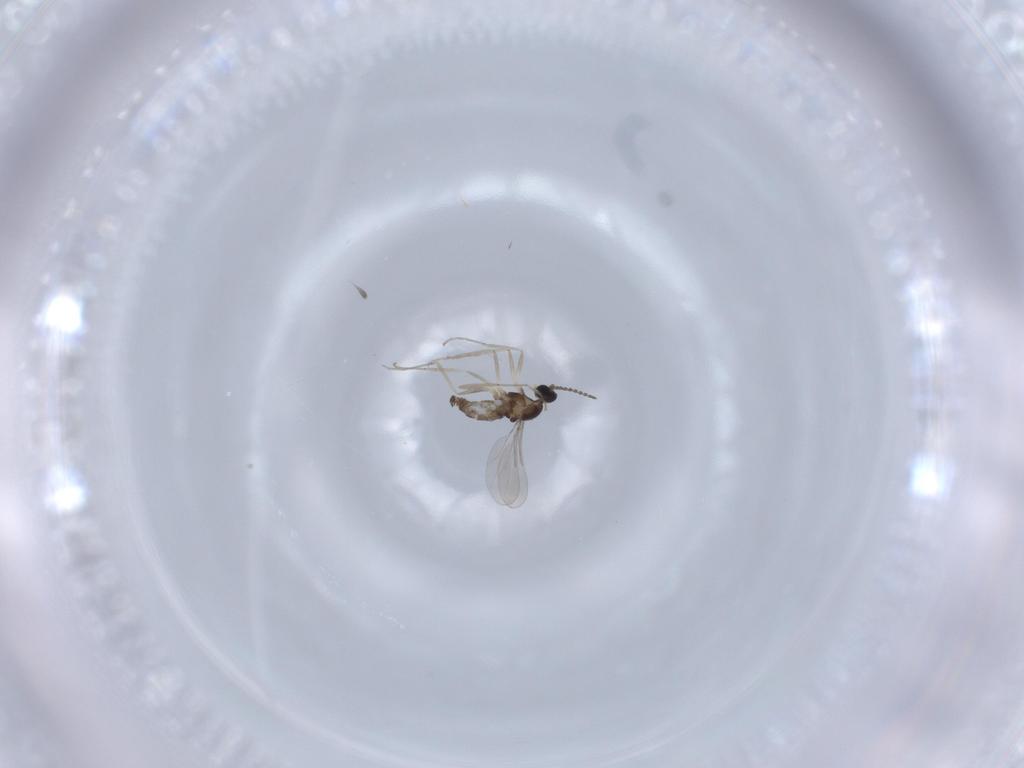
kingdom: Animalia
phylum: Arthropoda
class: Insecta
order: Diptera
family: Cecidomyiidae
